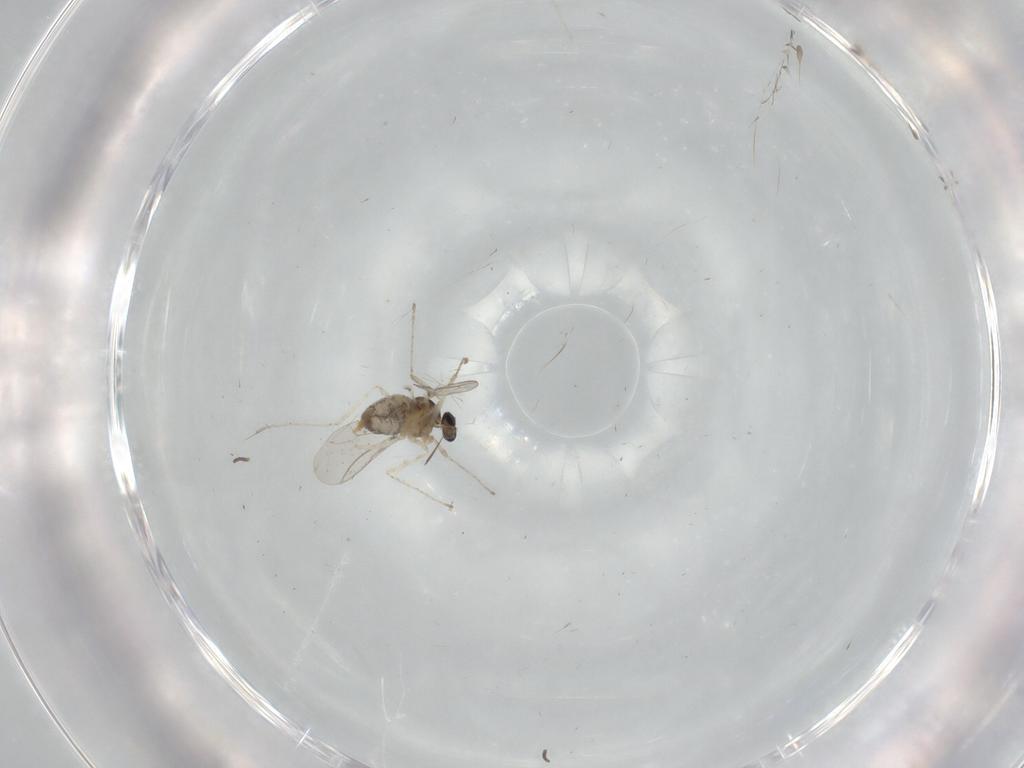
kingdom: Animalia
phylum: Arthropoda
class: Insecta
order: Diptera
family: Cecidomyiidae
